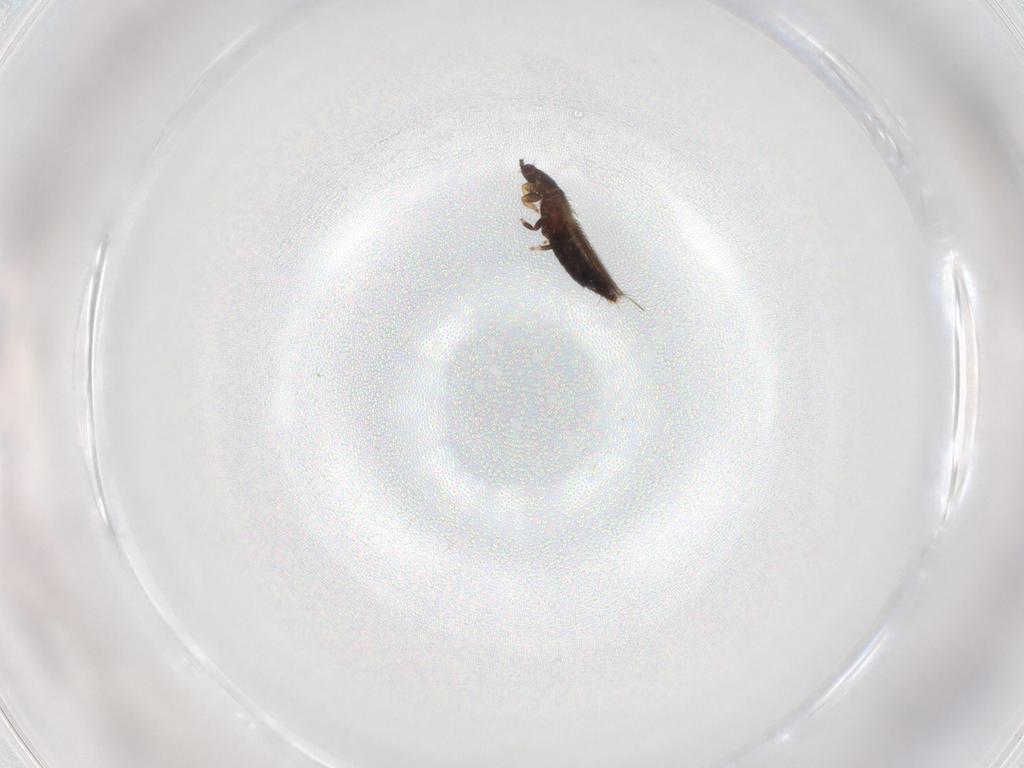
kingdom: Animalia
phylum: Arthropoda
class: Insecta
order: Thysanoptera
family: Thripidae
